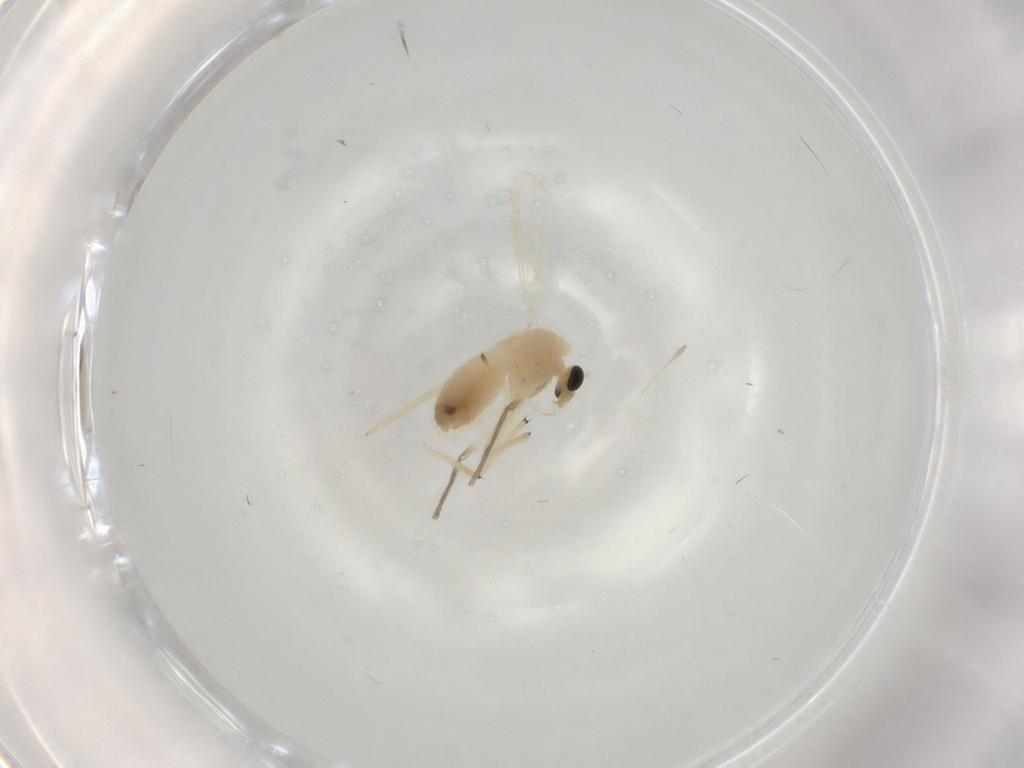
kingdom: Animalia
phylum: Arthropoda
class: Insecta
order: Diptera
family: Chironomidae
